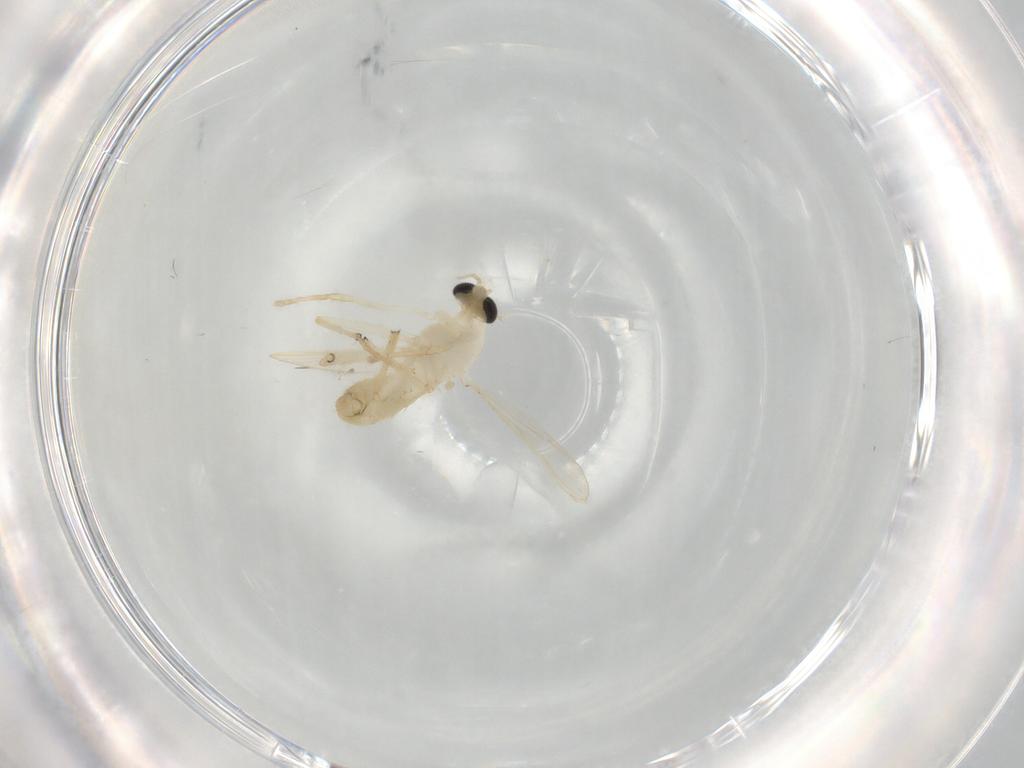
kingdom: Animalia
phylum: Arthropoda
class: Insecta
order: Diptera
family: Chironomidae
